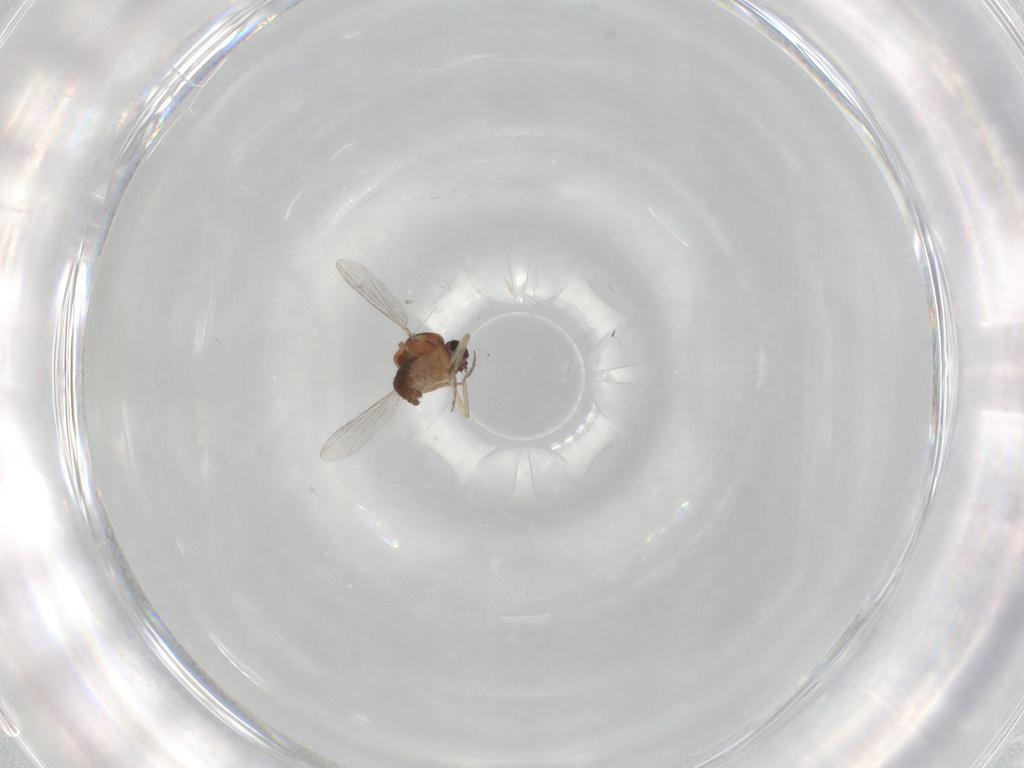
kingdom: Animalia
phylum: Arthropoda
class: Insecta
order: Diptera
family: Ceratopogonidae
